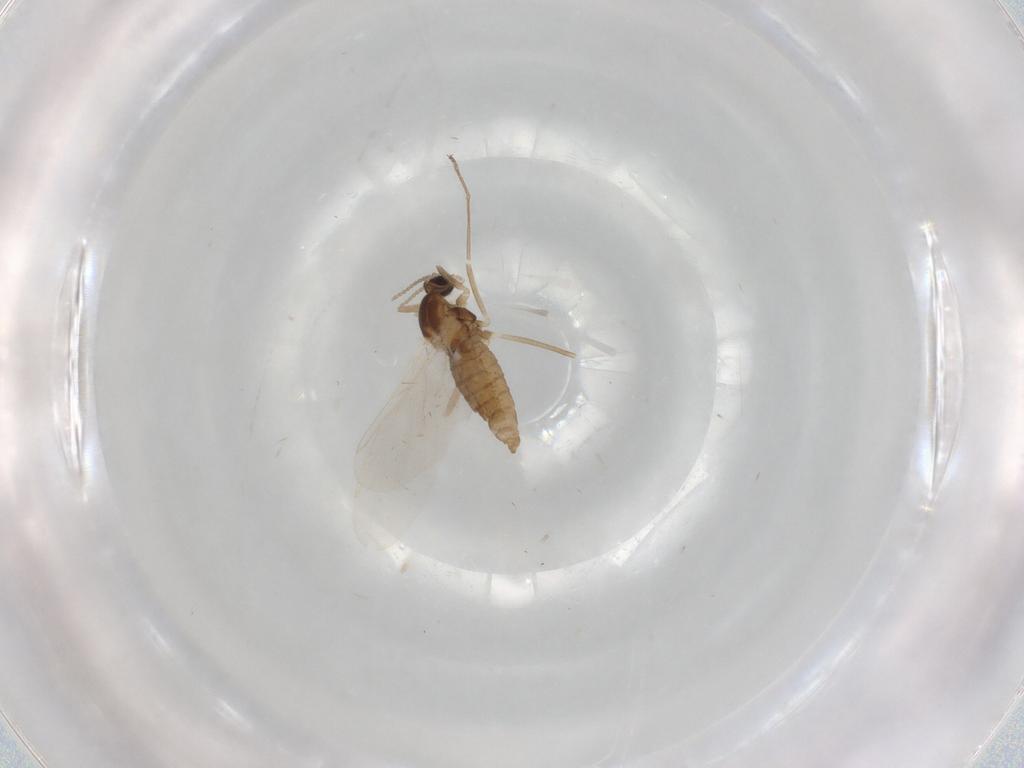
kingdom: Animalia
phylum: Arthropoda
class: Insecta
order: Diptera
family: Cecidomyiidae
